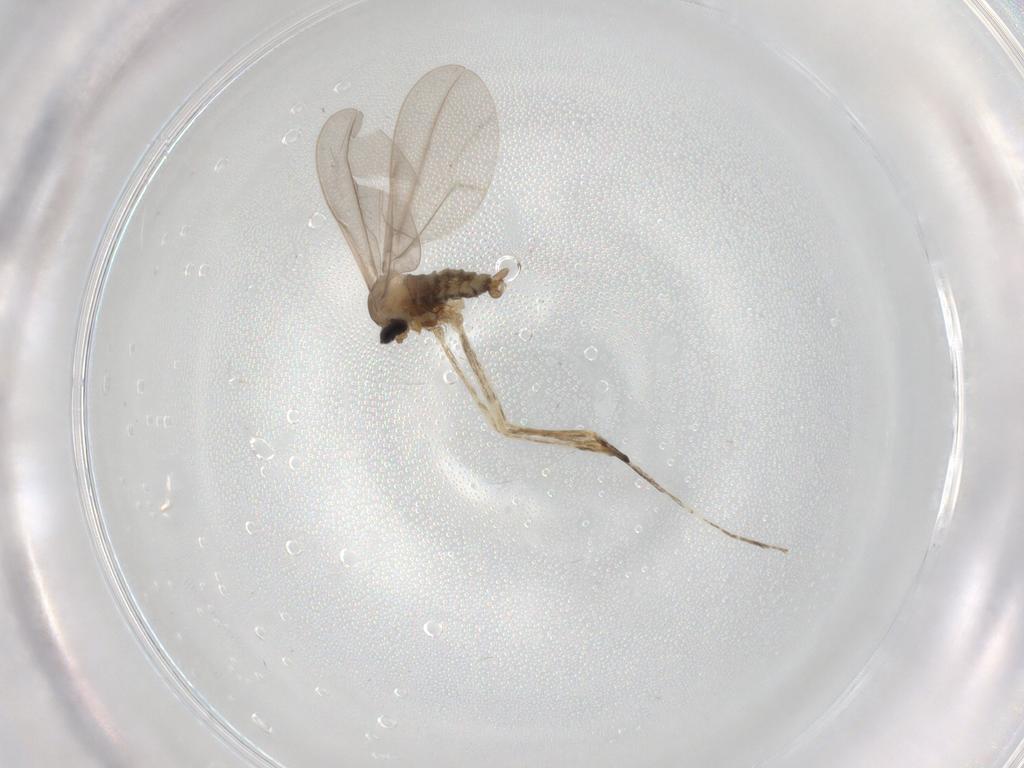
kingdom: Animalia
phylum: Arthropoda
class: Insecta
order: Diptera
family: Cecidomyiidae
